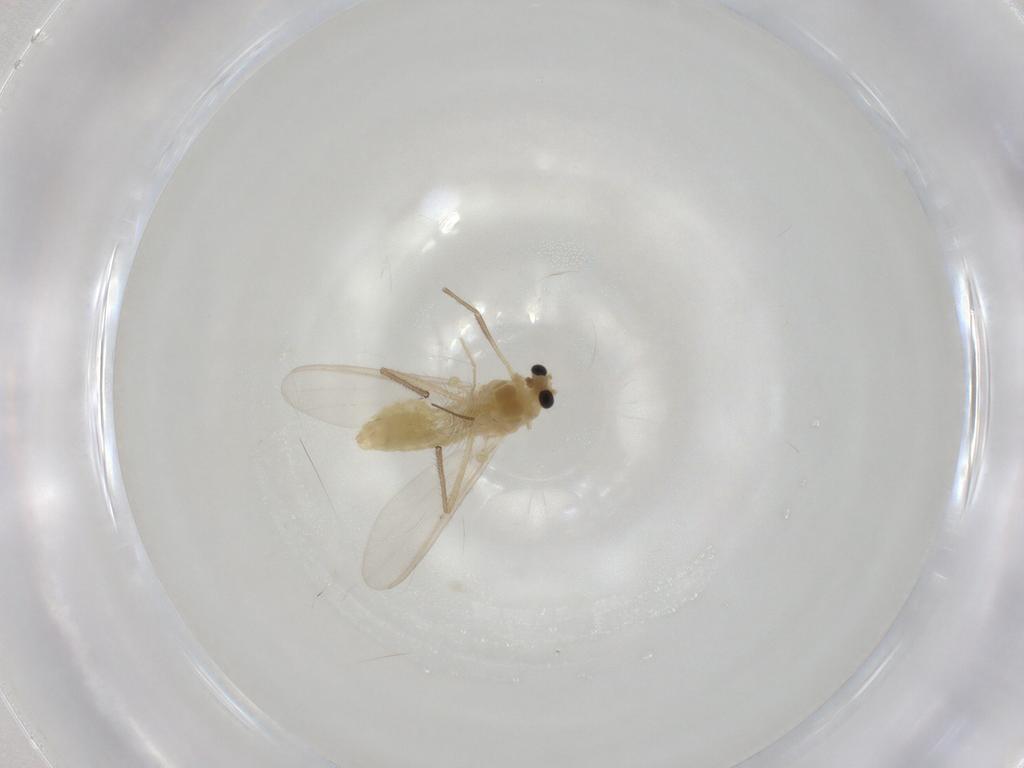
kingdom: Animalia
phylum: Arthropoda
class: Insecta
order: Diptera
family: Chironomidae
